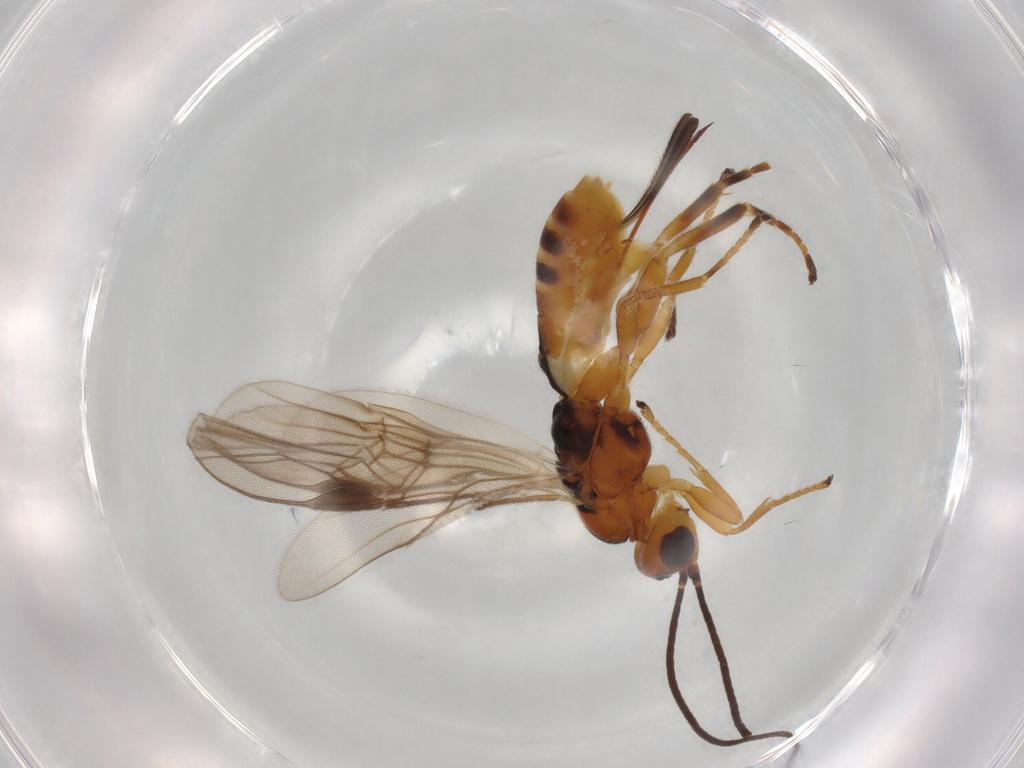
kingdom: Animalia
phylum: Arthropoda
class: Insecta
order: Hymenoptera
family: Braconidae
